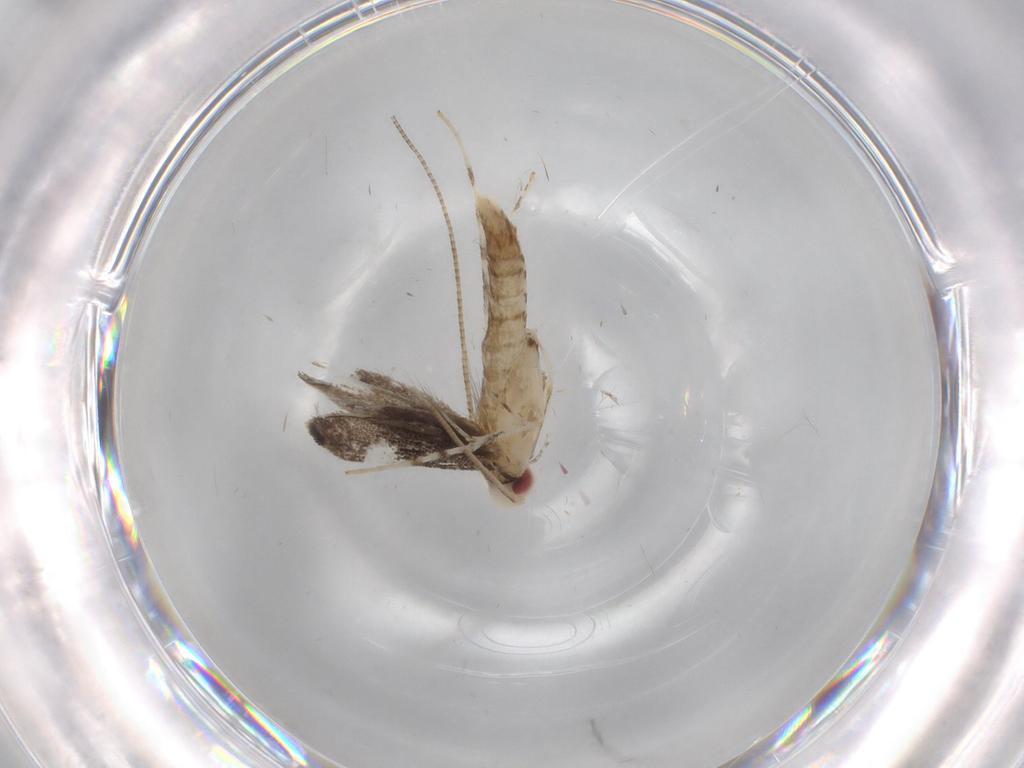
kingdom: Animalia
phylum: Arthropoda
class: Insecta
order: Lepidoptera
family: Gracillariidae
